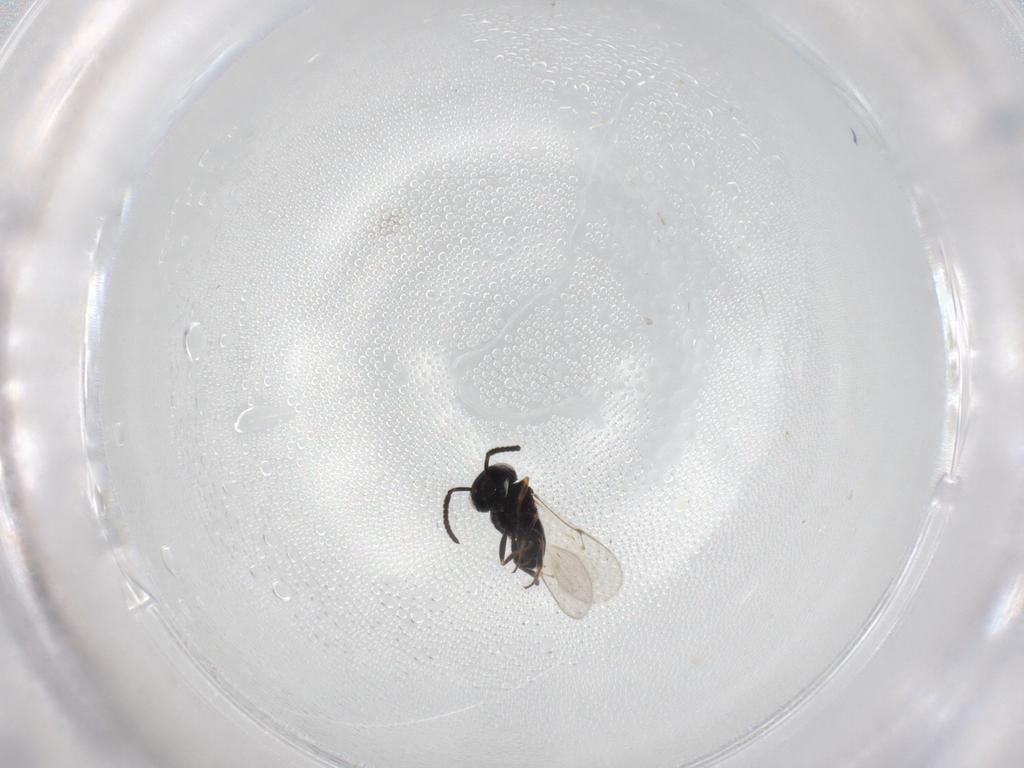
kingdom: Animalia
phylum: Arthropoda
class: Insecta
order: Hymenoptera
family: Scelionidae
